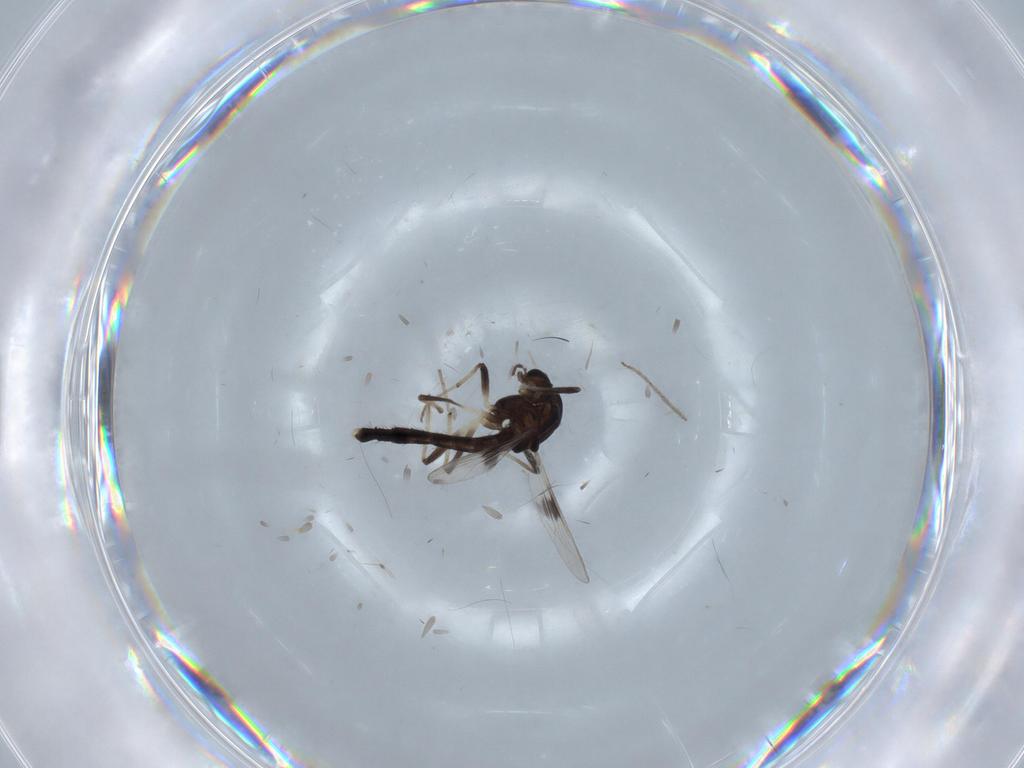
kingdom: Animalia
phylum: Arthropoda
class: Insecta
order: Diptera
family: Chironomidae
